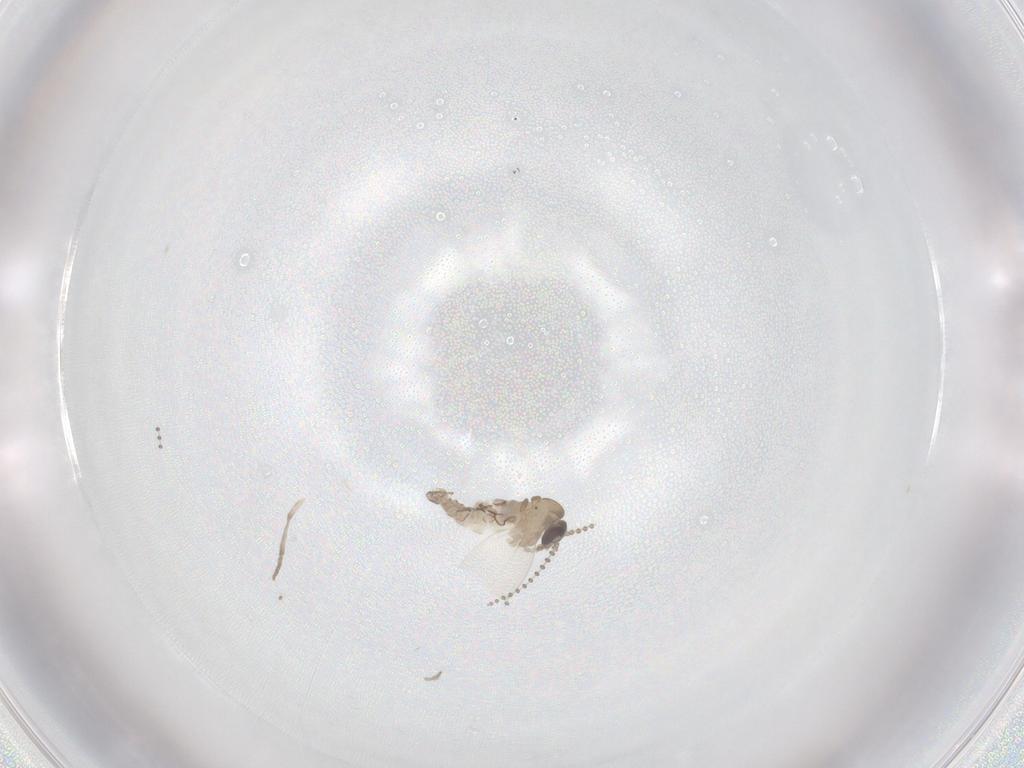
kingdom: Animalia
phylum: Arthropoda
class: Insecta
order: Diptera
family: Psychodidae
